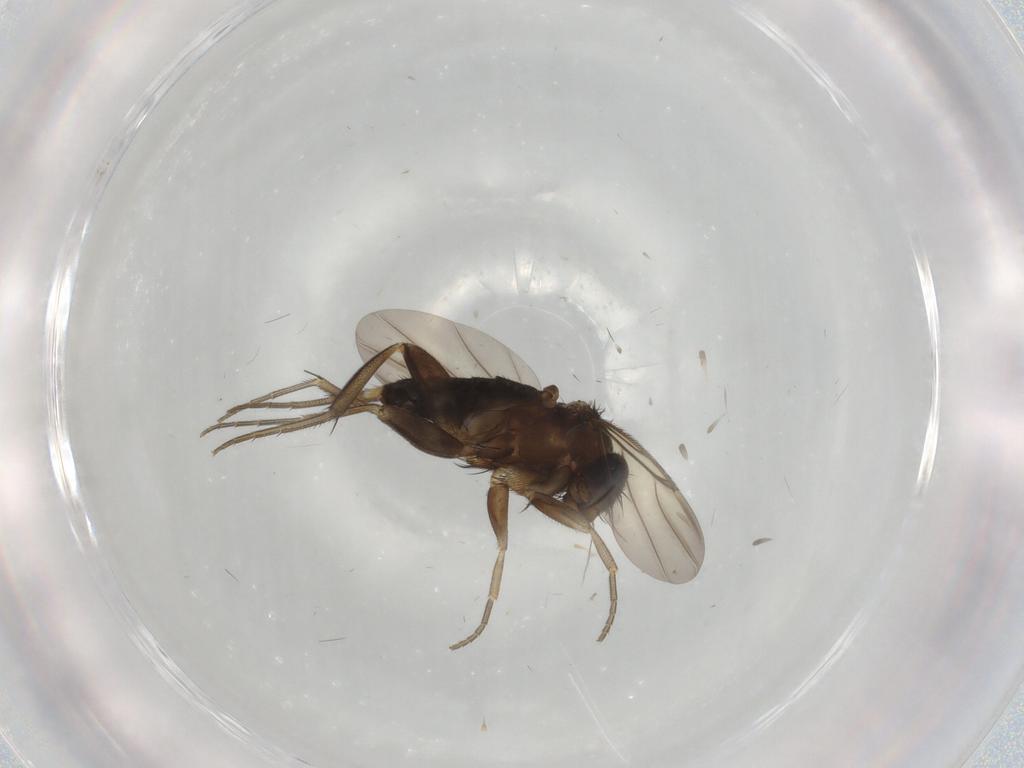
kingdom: Animalia
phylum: Arthropoda
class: Insecta
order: Diptera
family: Phoridae
